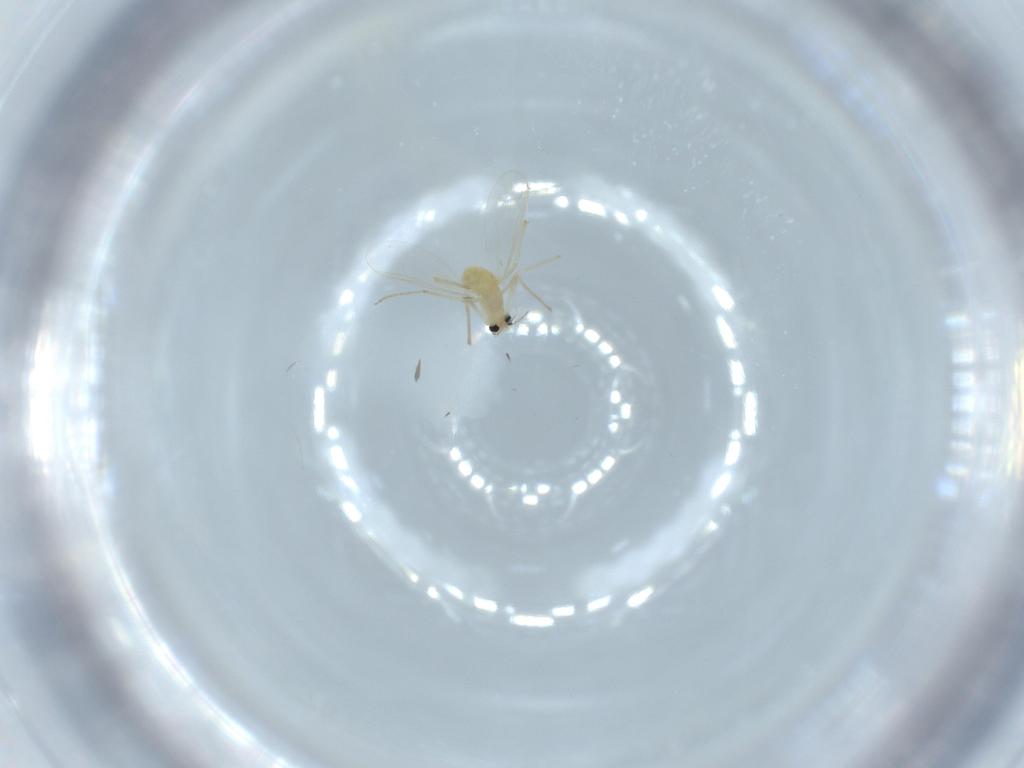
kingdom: Animalia
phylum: Arthropoda
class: Insecta
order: Diptera
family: Chironomidae
